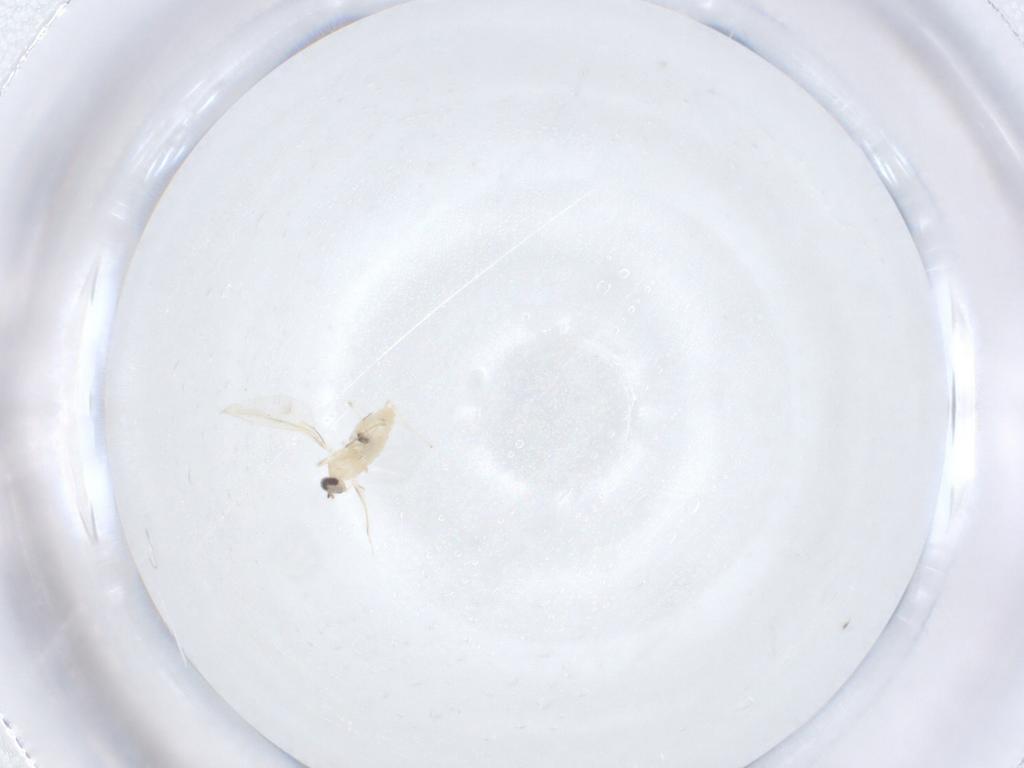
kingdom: Animalia
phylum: Arthropoda
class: Insecta
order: Diptera
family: Cecidomyiidae
